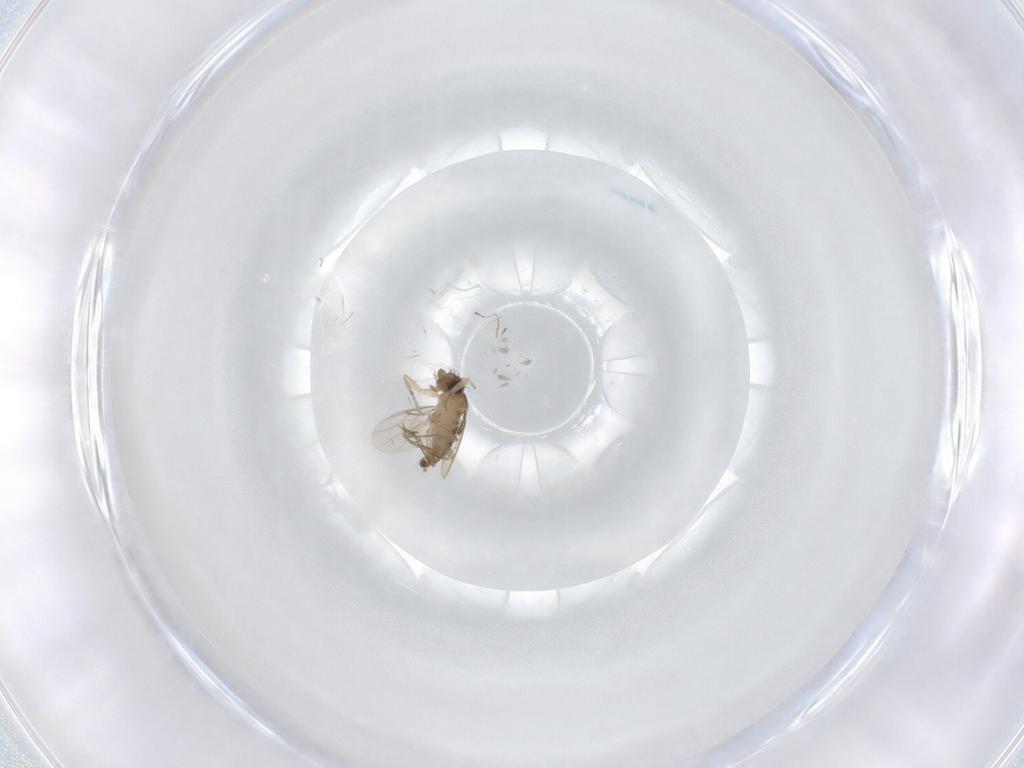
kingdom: Animalia
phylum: Arthropoda
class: Insecta
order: Diptera
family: Phoridae
